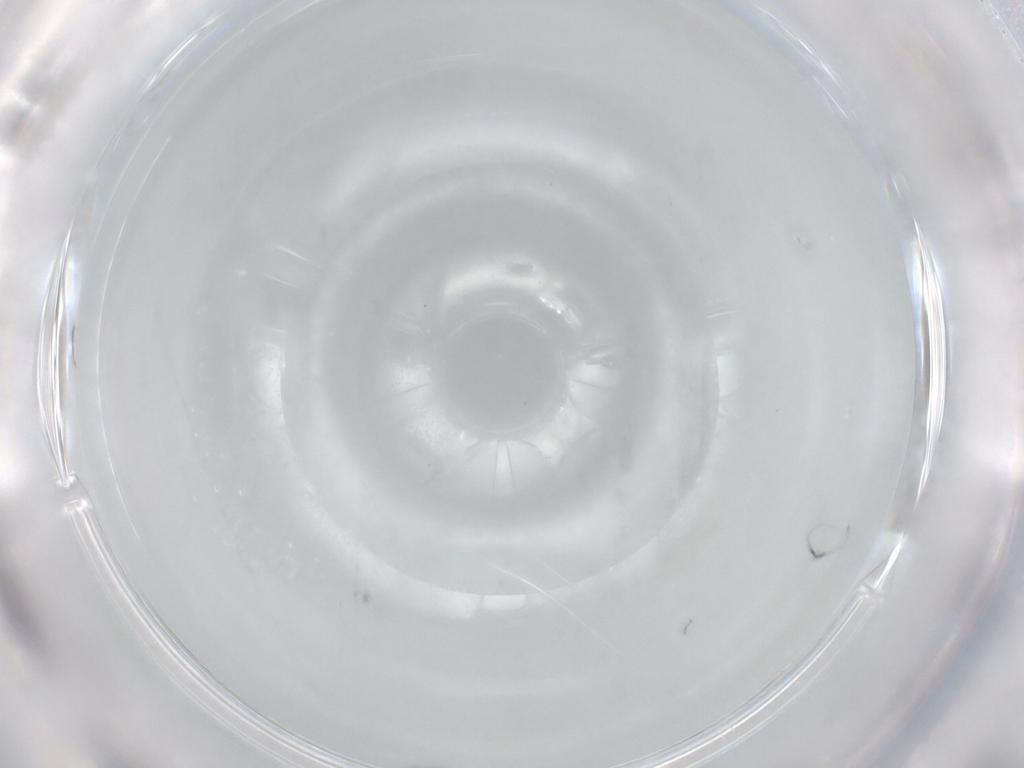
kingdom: Animalia
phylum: Arthropoda
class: Insecta
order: Diptera
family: Cecidomyiidae
